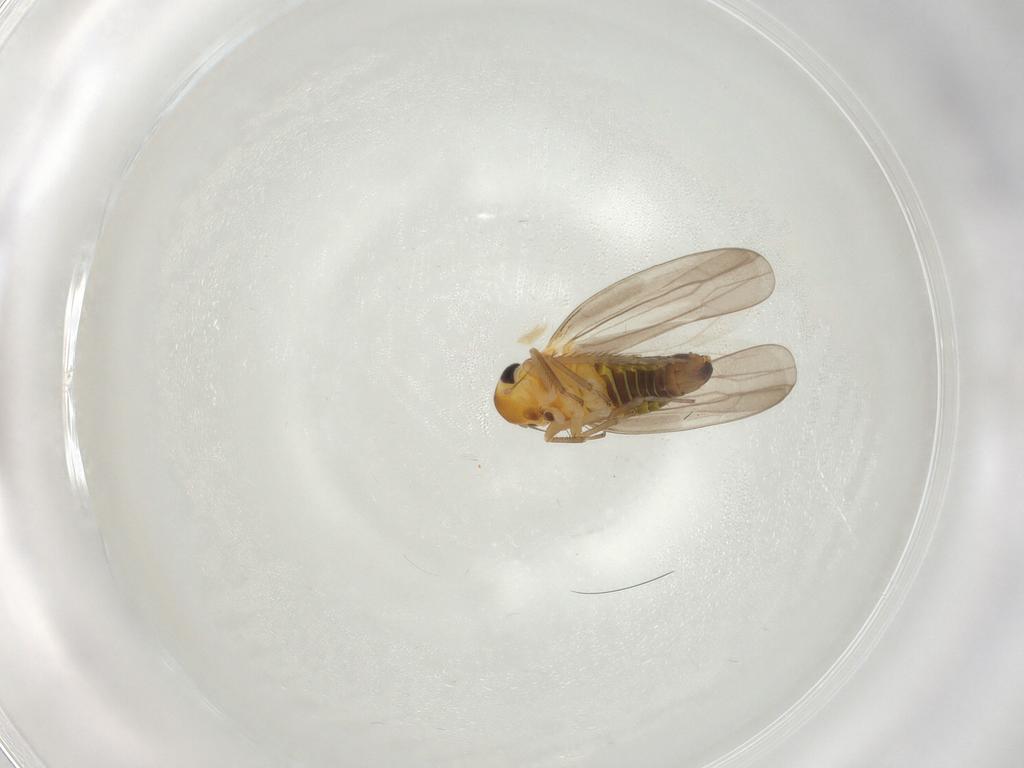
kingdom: Animalia
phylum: Arthropoda
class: Insecta
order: Hemiptera
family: Cicadellidae
